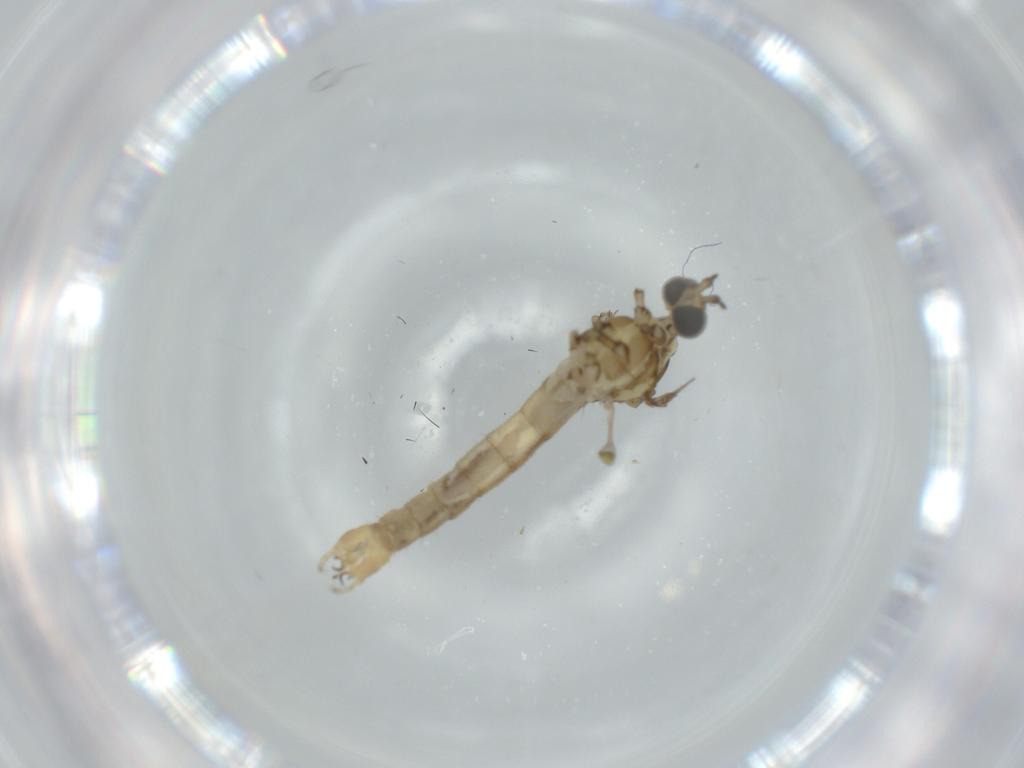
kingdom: Animalia
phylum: Arthropoda
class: Insecta
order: Diptera
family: Limoniidae
